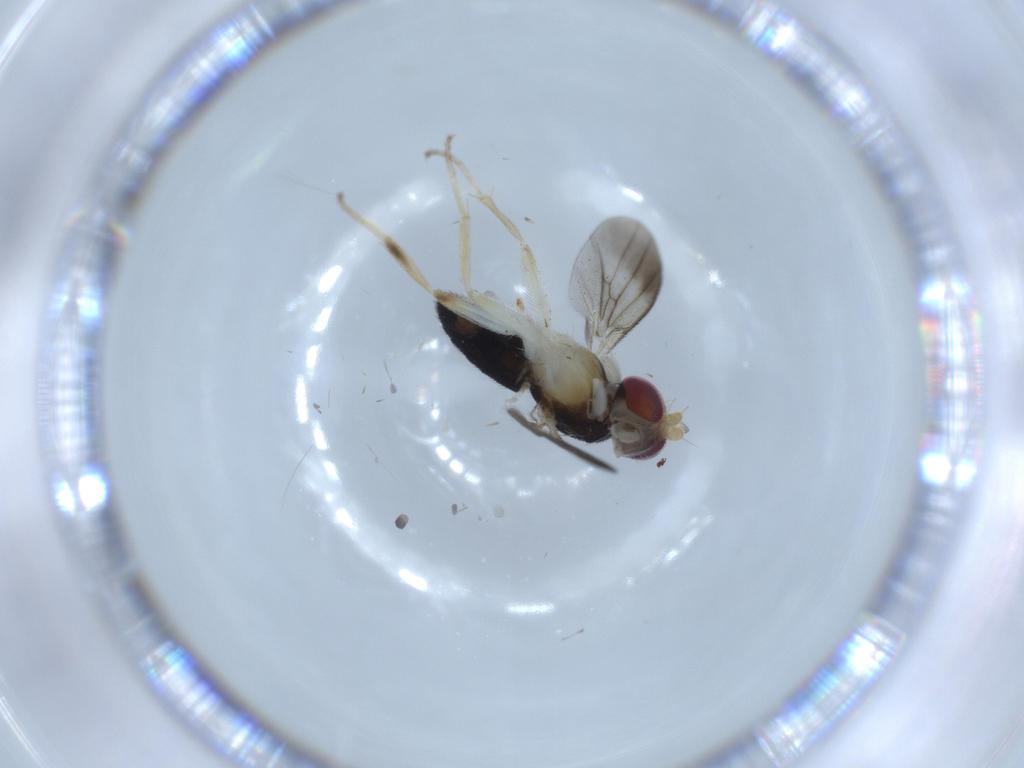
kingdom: Animalia
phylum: Arthropoda
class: Insecta
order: Diptera
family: Clusiidae
